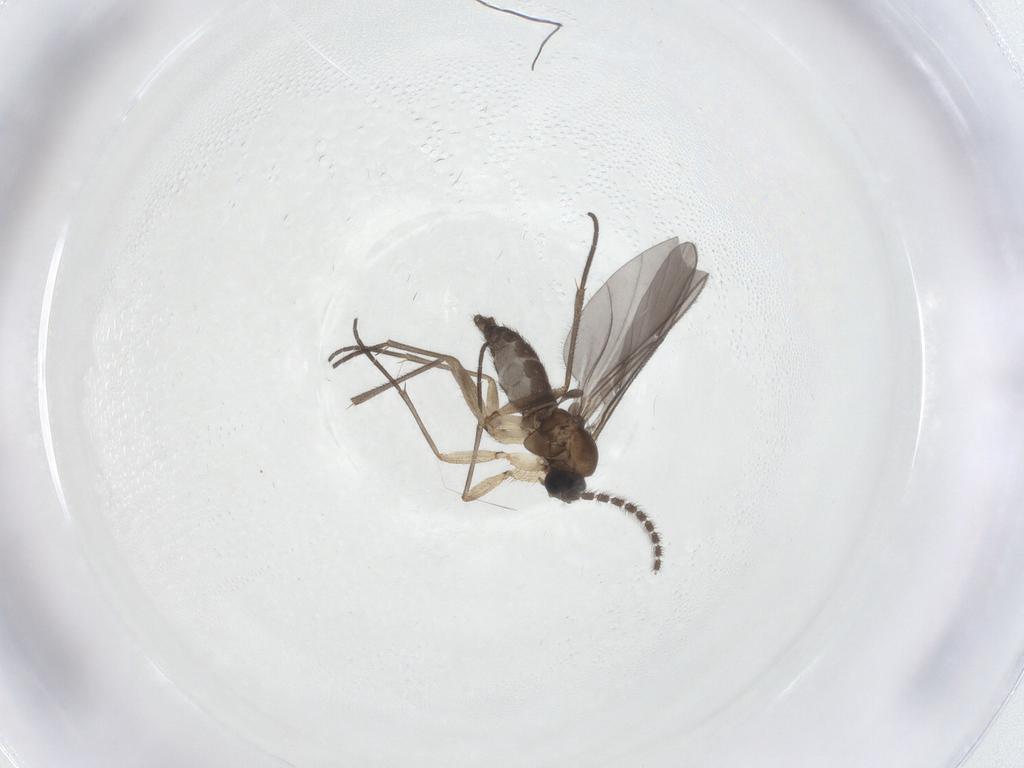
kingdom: Animalia
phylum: Arthropoda
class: Insecta
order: Diptera
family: Sciaridae
